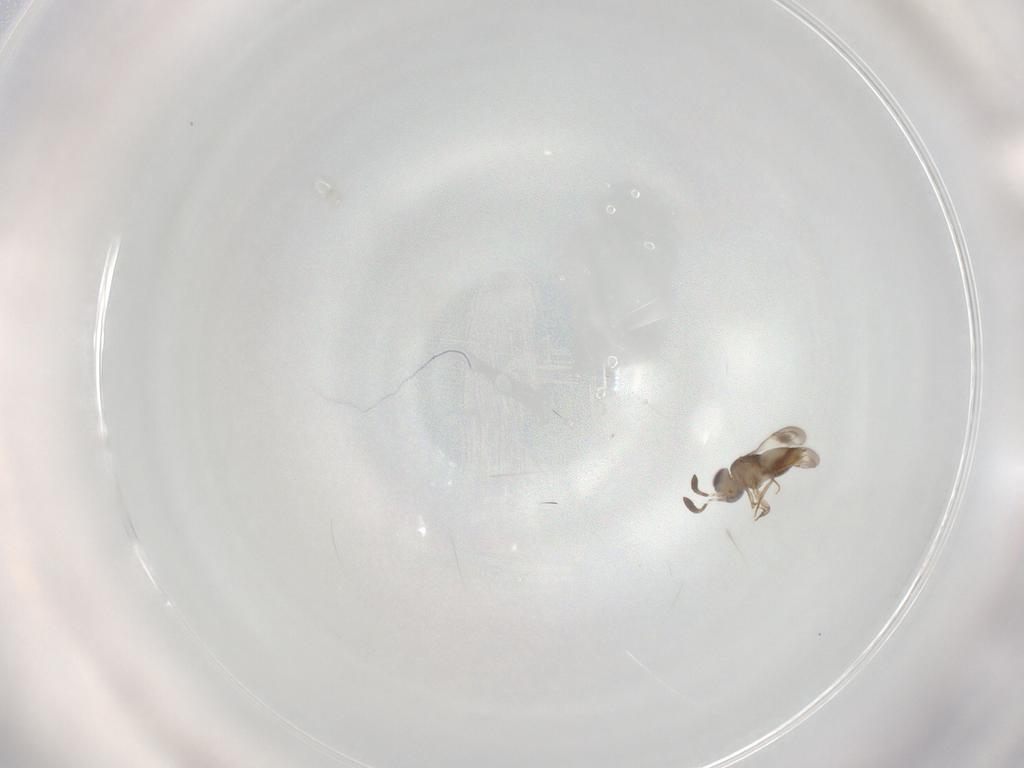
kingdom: Animalia
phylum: Arthropoda
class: Insecta
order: Hymenoptera
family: Ceraphronidae
